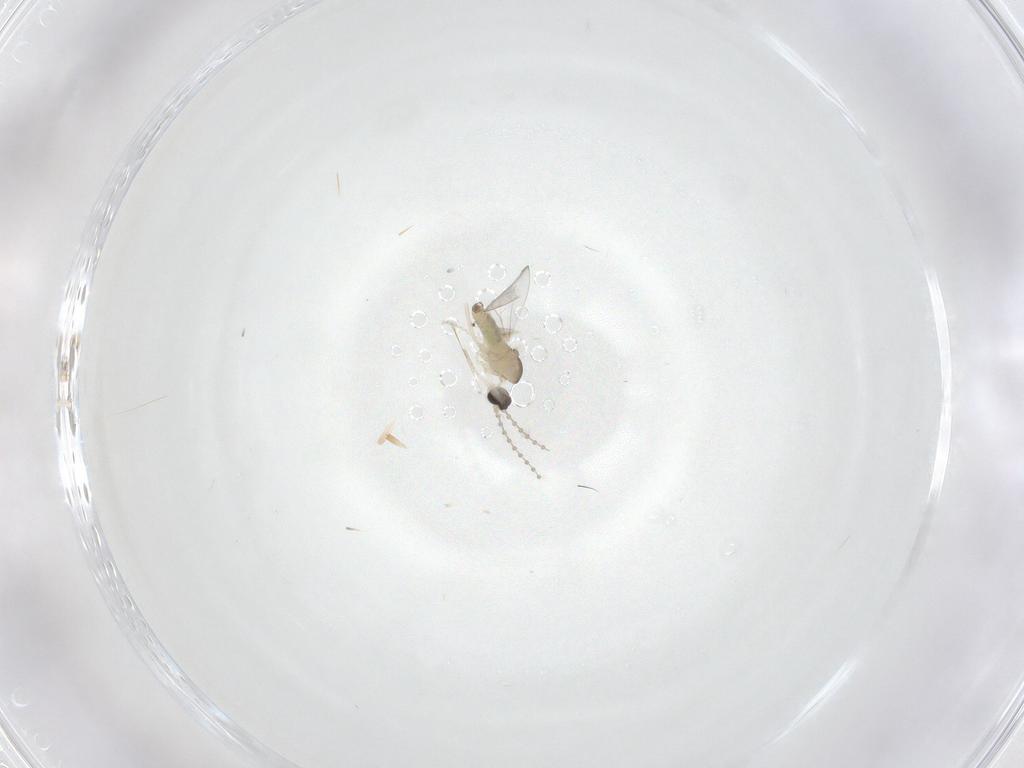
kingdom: Animalia
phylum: Arthropoda
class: Insecta
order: Diptera
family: Cecidomyiidae
